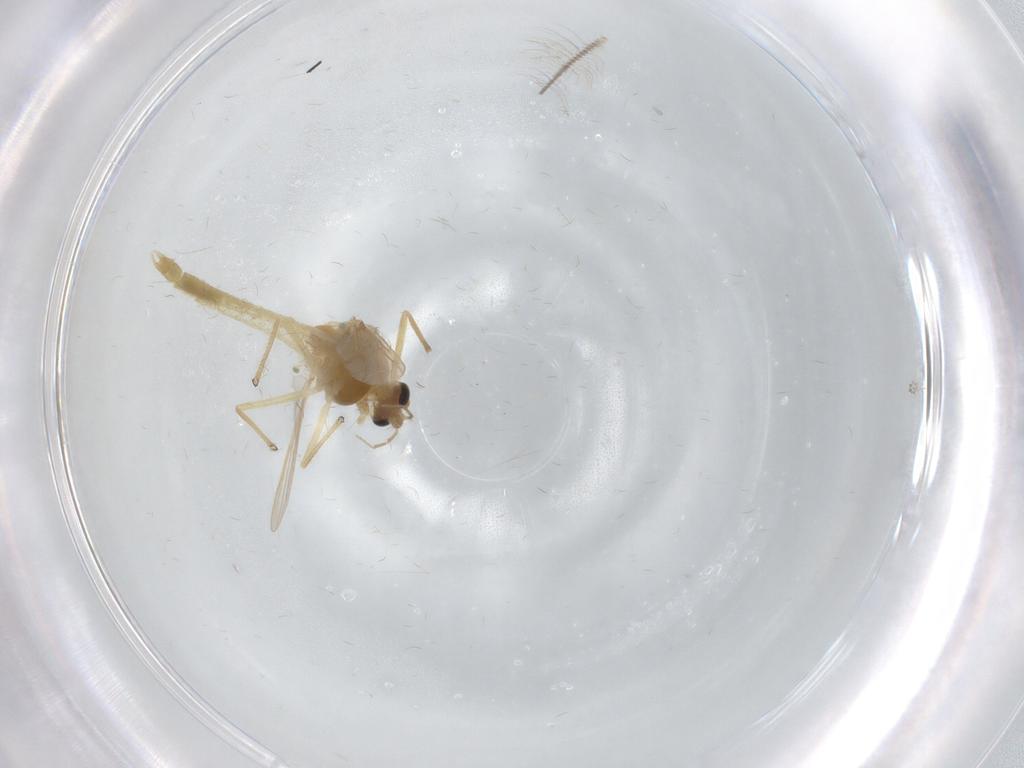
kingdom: Animalia
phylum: Arthropoda
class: Insecta
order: Diptera
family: Chironomidae
